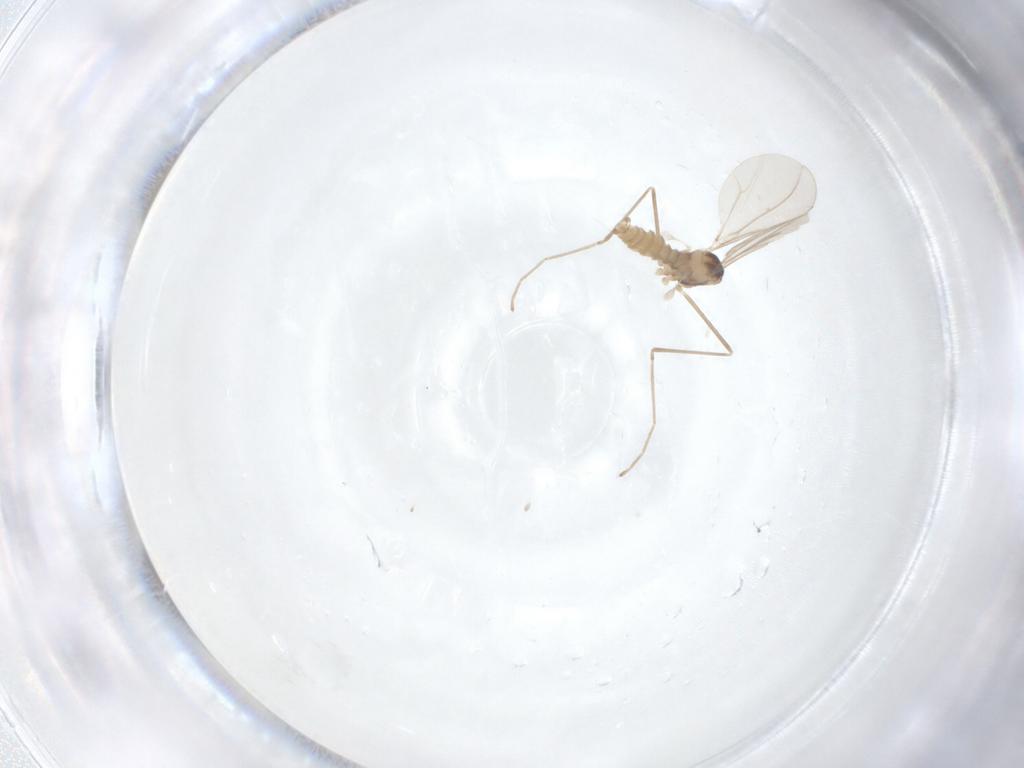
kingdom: Animalia
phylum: Arthropoda
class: Insecta
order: Diptera
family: Cecidomyiidae
